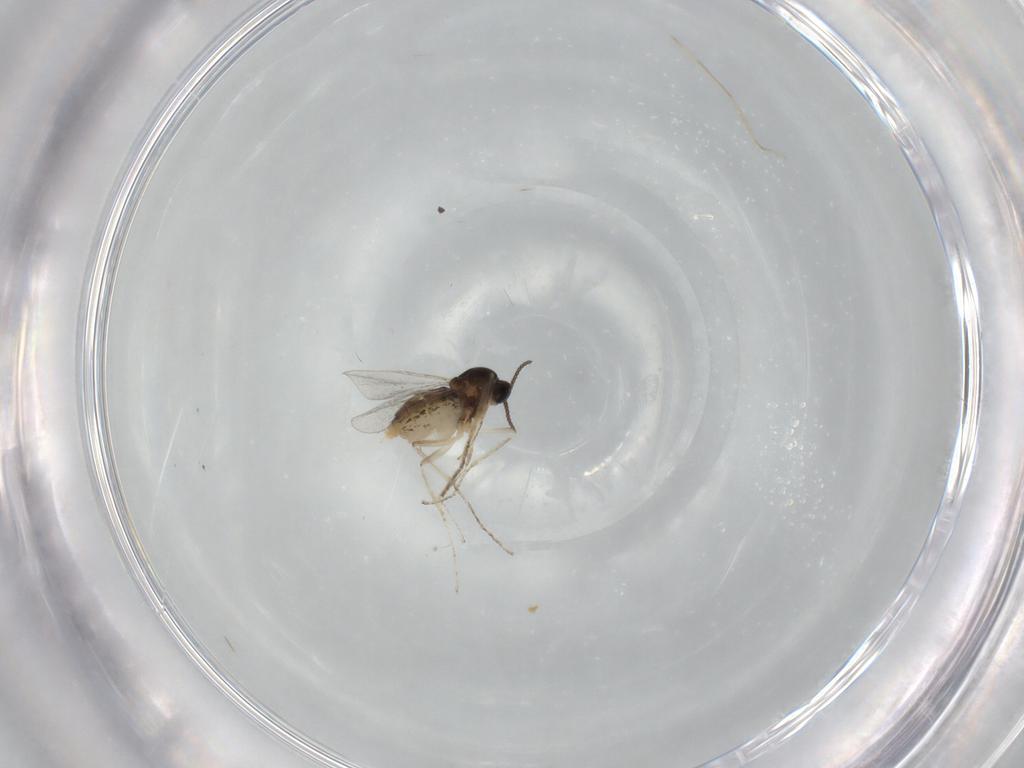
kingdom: Animalia
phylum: Arthropoda
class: Insecta
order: Diptera
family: Cecidomyiidae
